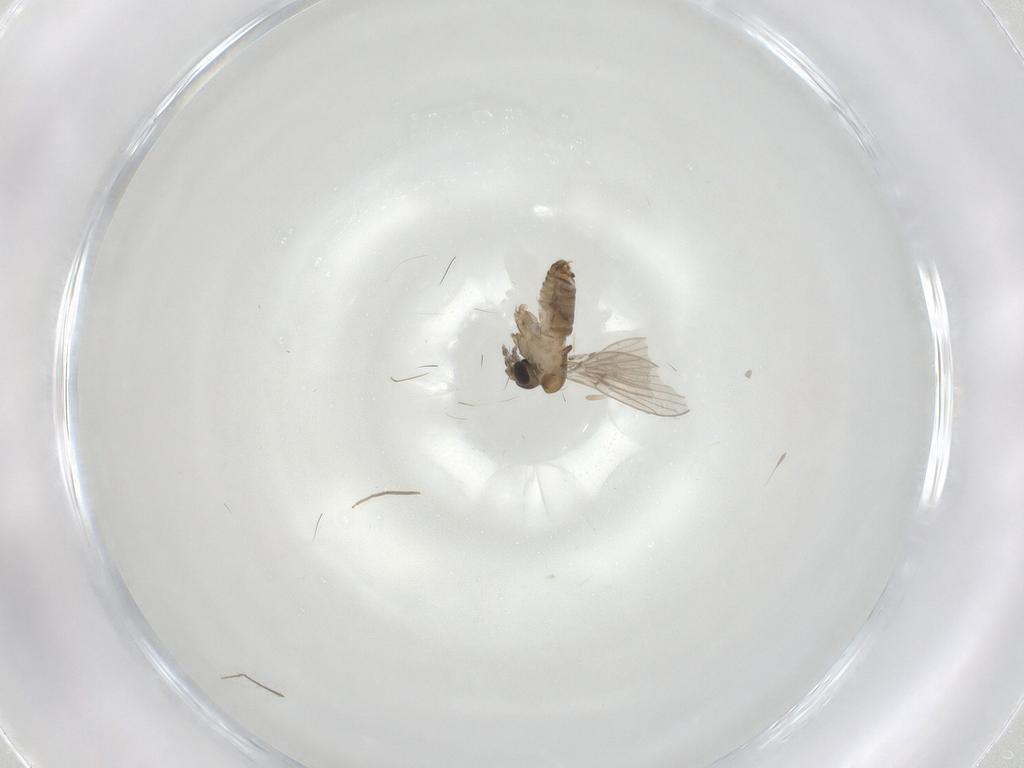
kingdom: Animalia
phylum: Arthropoda
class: Insecta
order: Diptera
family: Psychodidae
